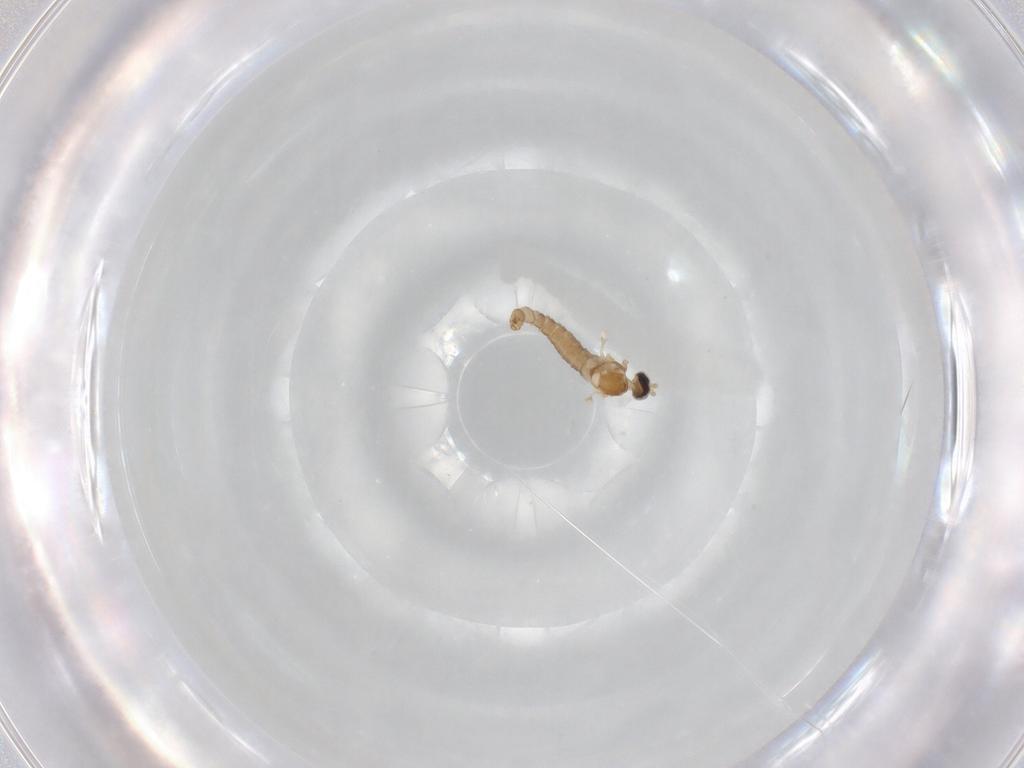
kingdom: Animalia
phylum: Arthropoda
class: Insecta
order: Diptera
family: Cecidomyiidae
